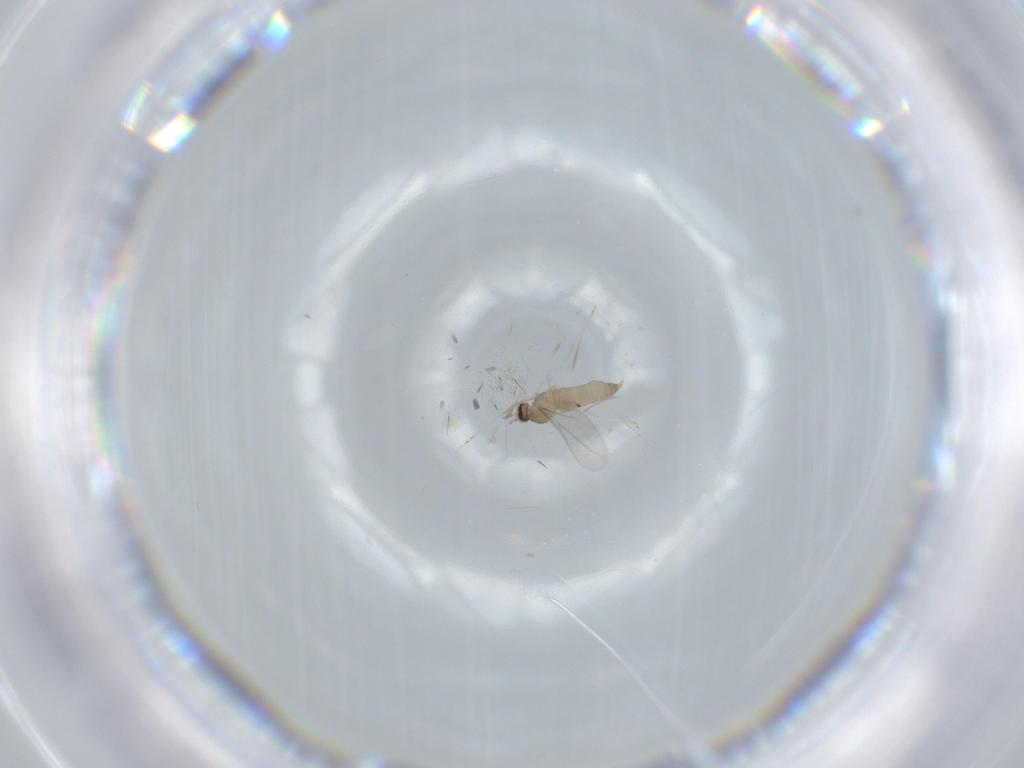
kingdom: Animalia
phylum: Arthropoda
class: Insecta
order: Diptera
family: Cecidomyiidae
